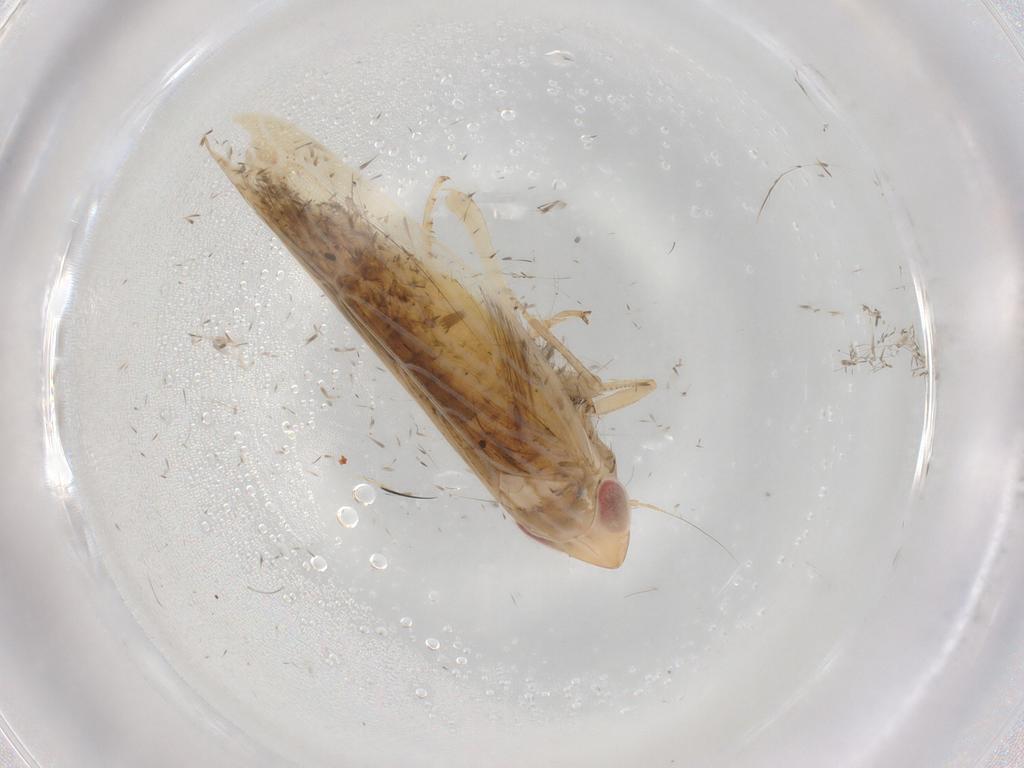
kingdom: Animalia
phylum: Arthropoda
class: Insecta
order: Hemiptera
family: Cicadellidae
